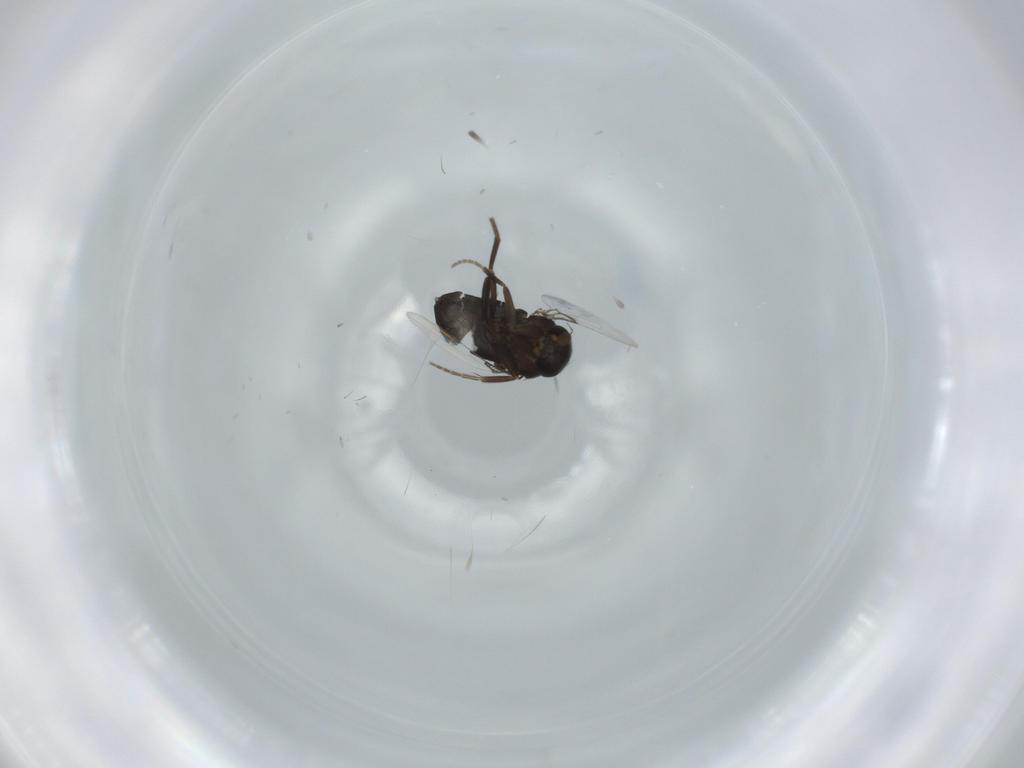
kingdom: Animalia
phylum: Arthropoda
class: Insecta
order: Diptera
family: Phoridae
